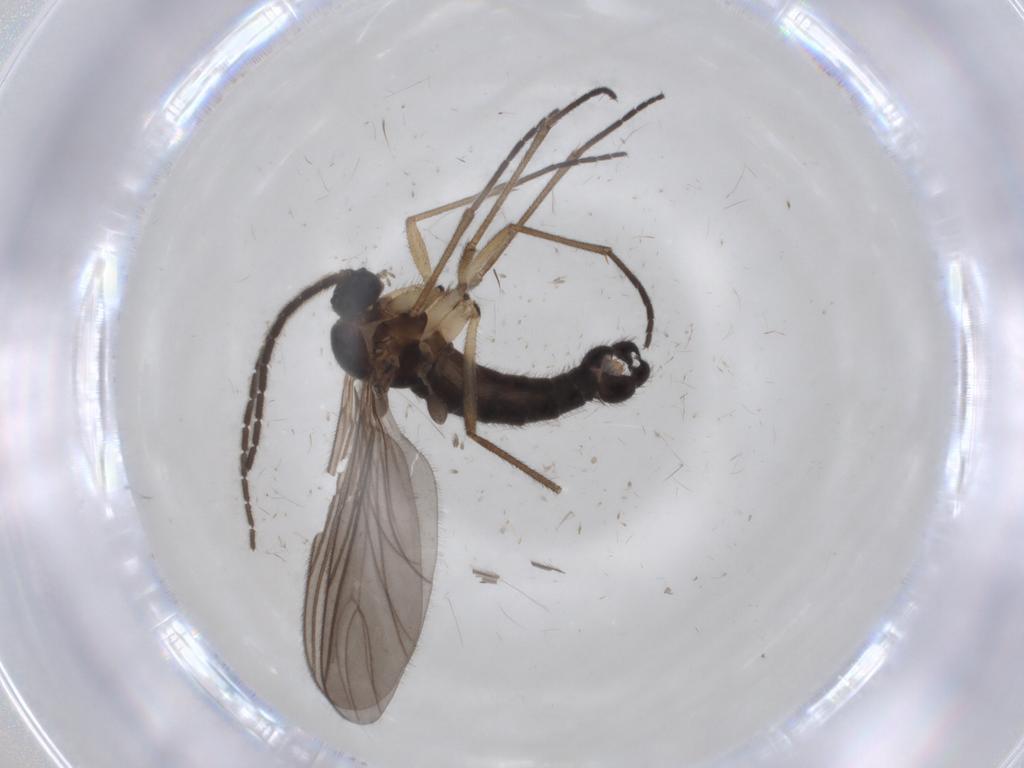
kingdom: Animalia
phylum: Arthropoda
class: Insecta
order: Diptera
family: Sciaridae
